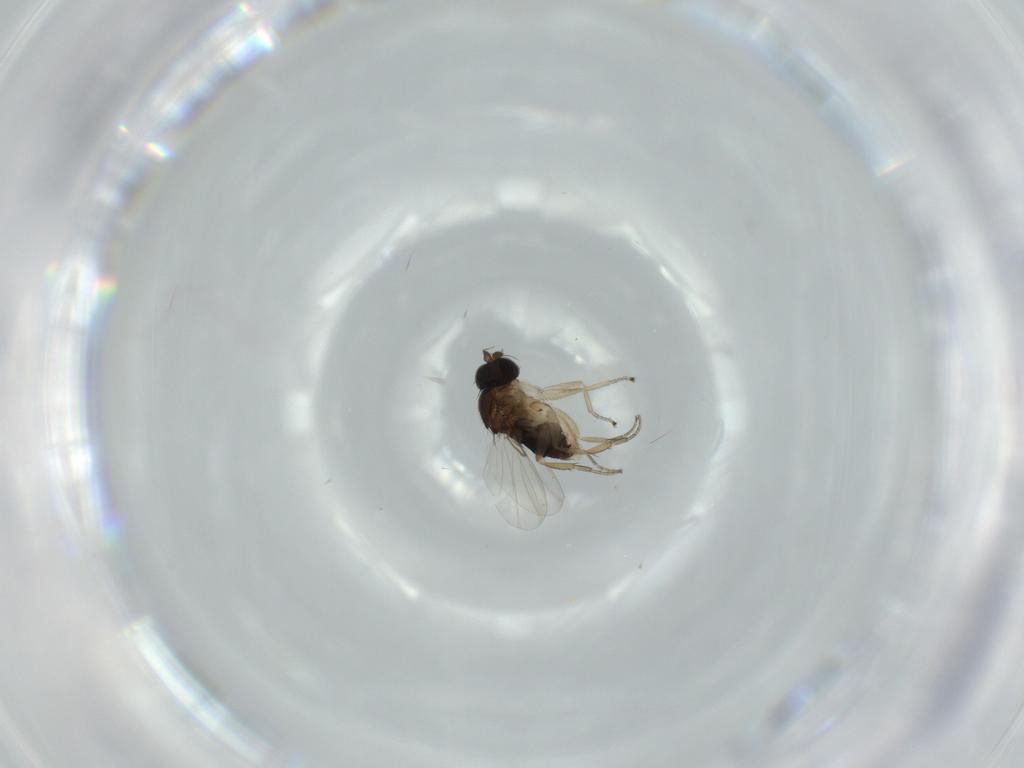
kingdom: Animalia
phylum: Arthropoda
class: Insecta
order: Diptera
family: Phoridae
